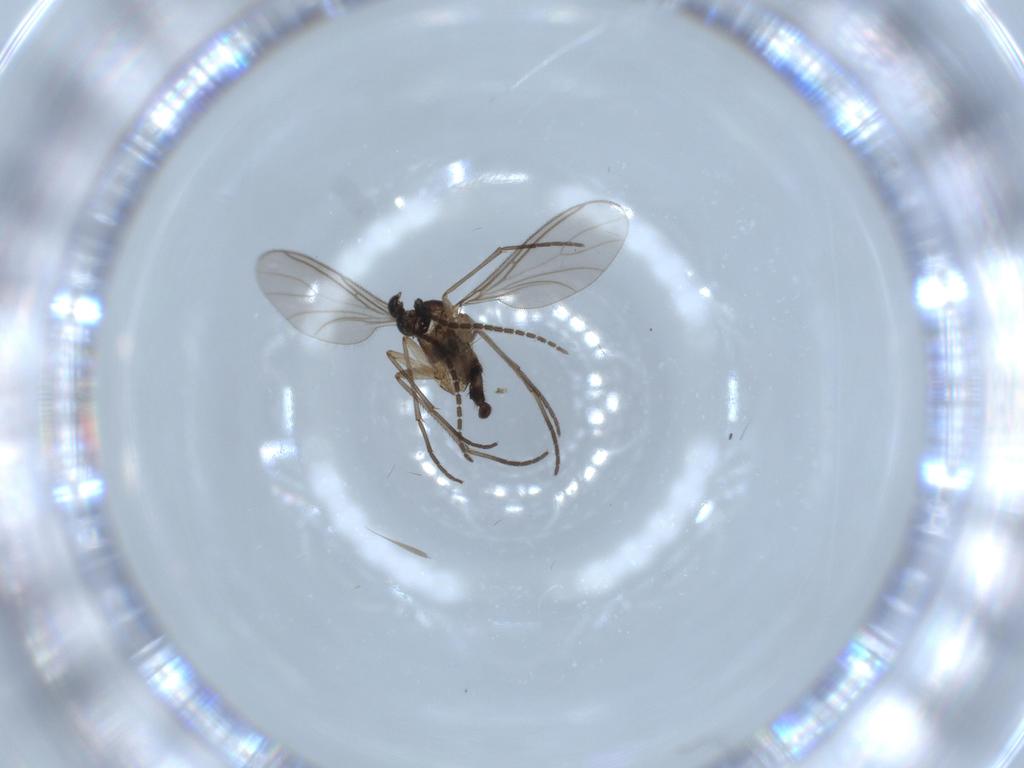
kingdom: Animalia
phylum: Arthropoda
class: Insecta
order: Diptera
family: Sciaridae
